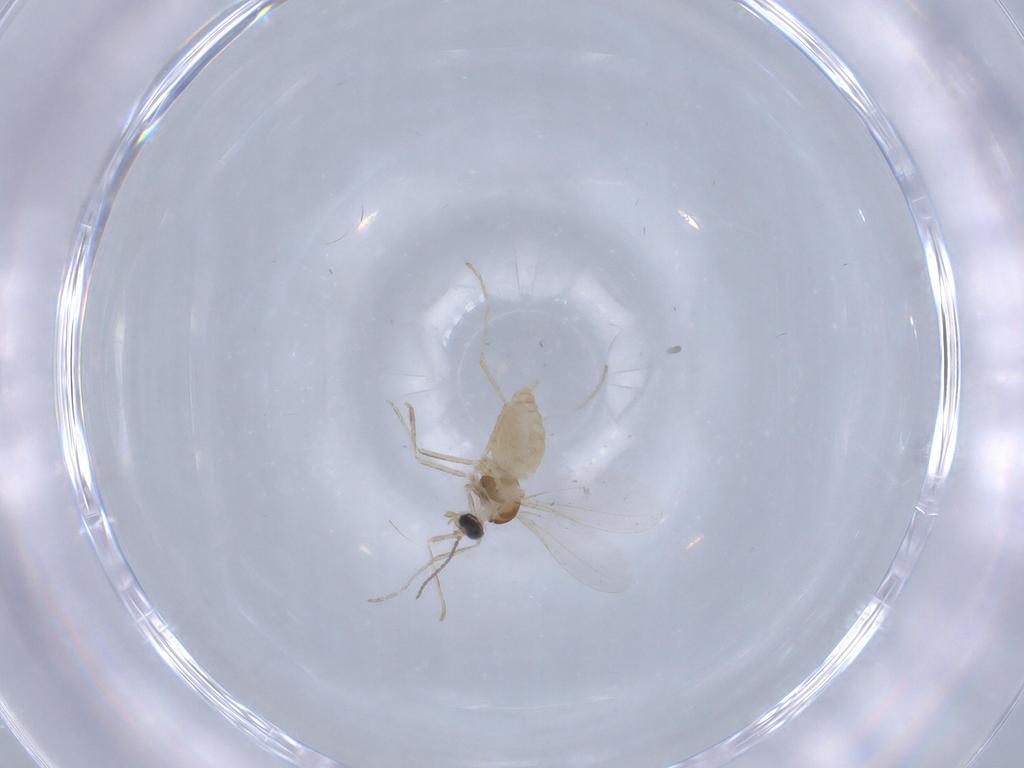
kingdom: Animalia
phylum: Arthropoda
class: Insecta
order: Diptera
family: Cecidomyiidae
